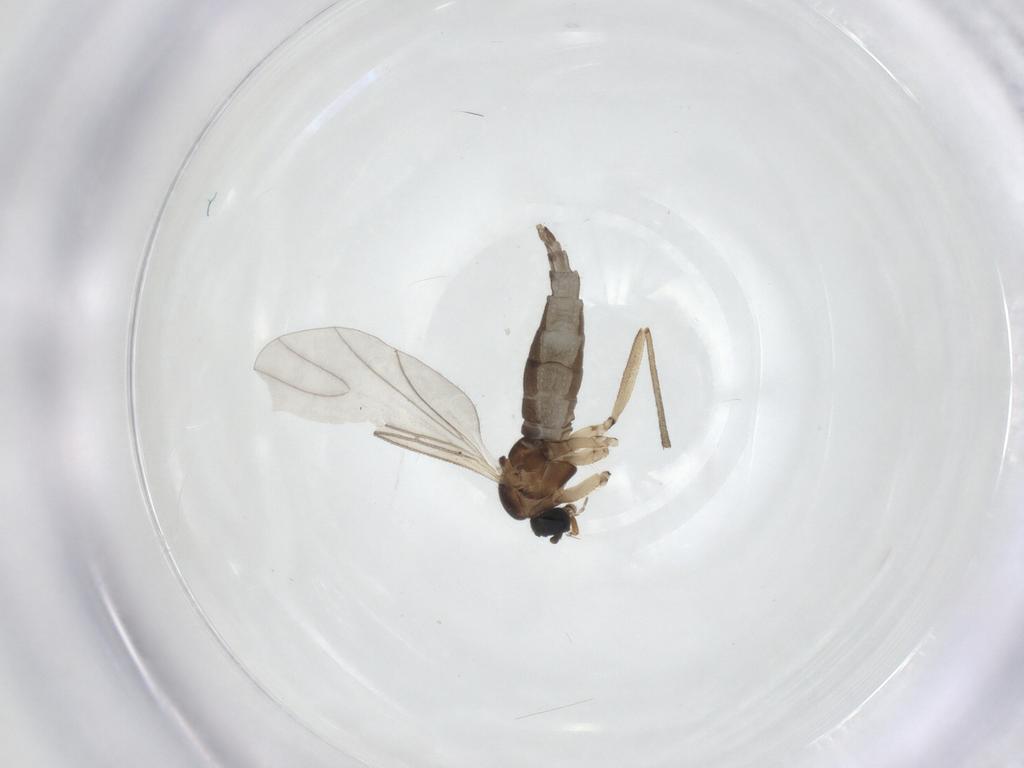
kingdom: Animalia
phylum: Arthropoda
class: Insecta
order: Diptera
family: Sciaridae
